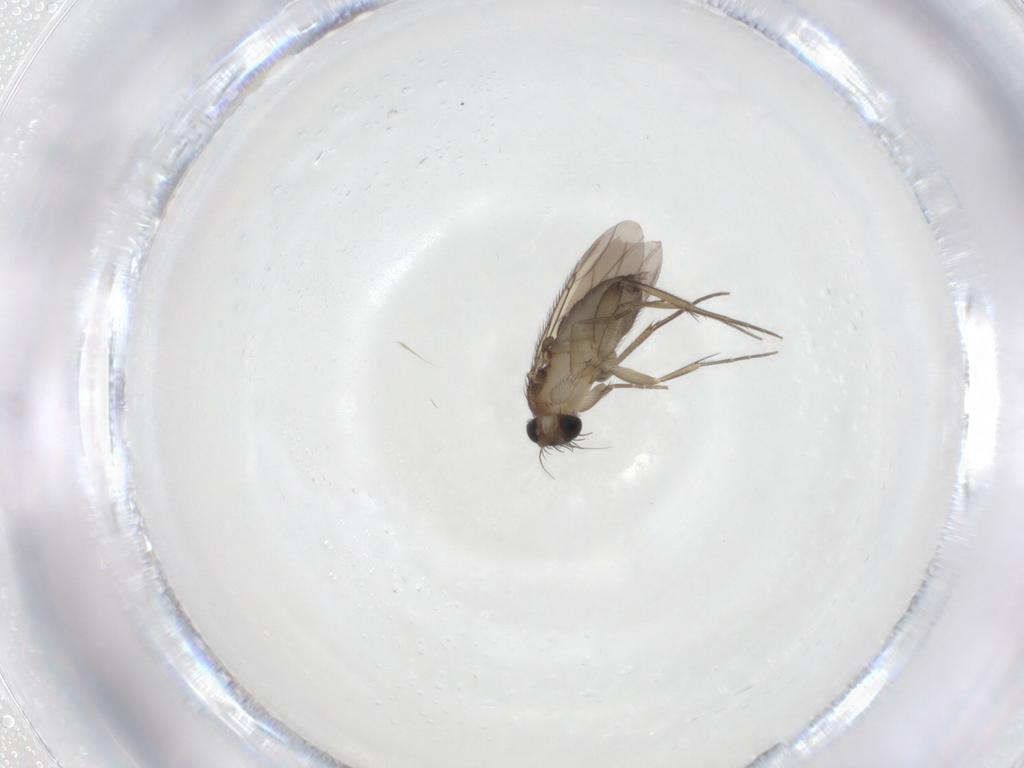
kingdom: Animalia
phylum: Arthropoda
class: Insecta
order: Diptera
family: Phoridae
